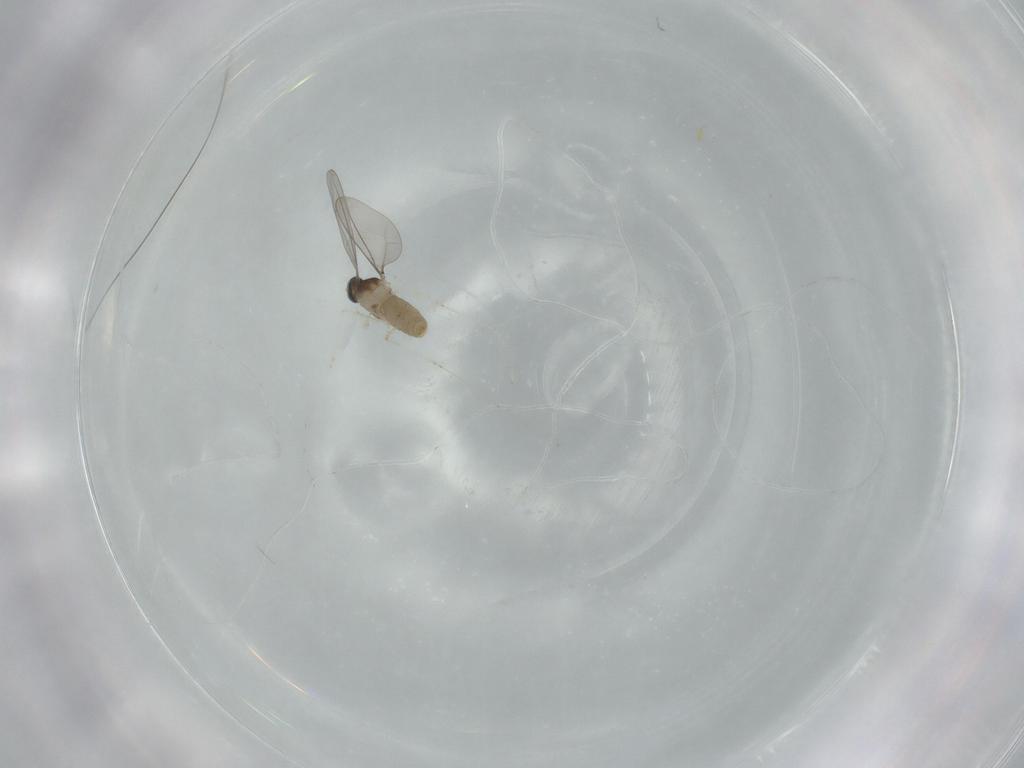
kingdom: Animalia
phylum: Arthropoda
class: Insecta
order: Diptera
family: Cecidomyiidae
